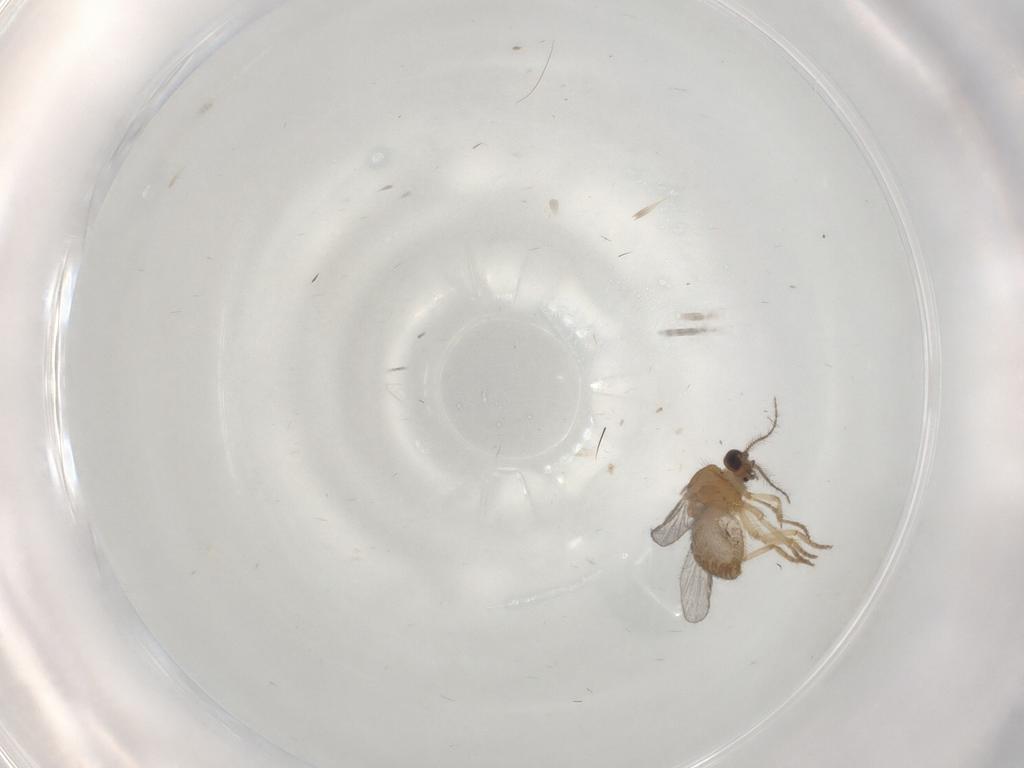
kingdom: Animalia
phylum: Arthropoda
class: Insecta
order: Diptera
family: Ceratopogonidae
